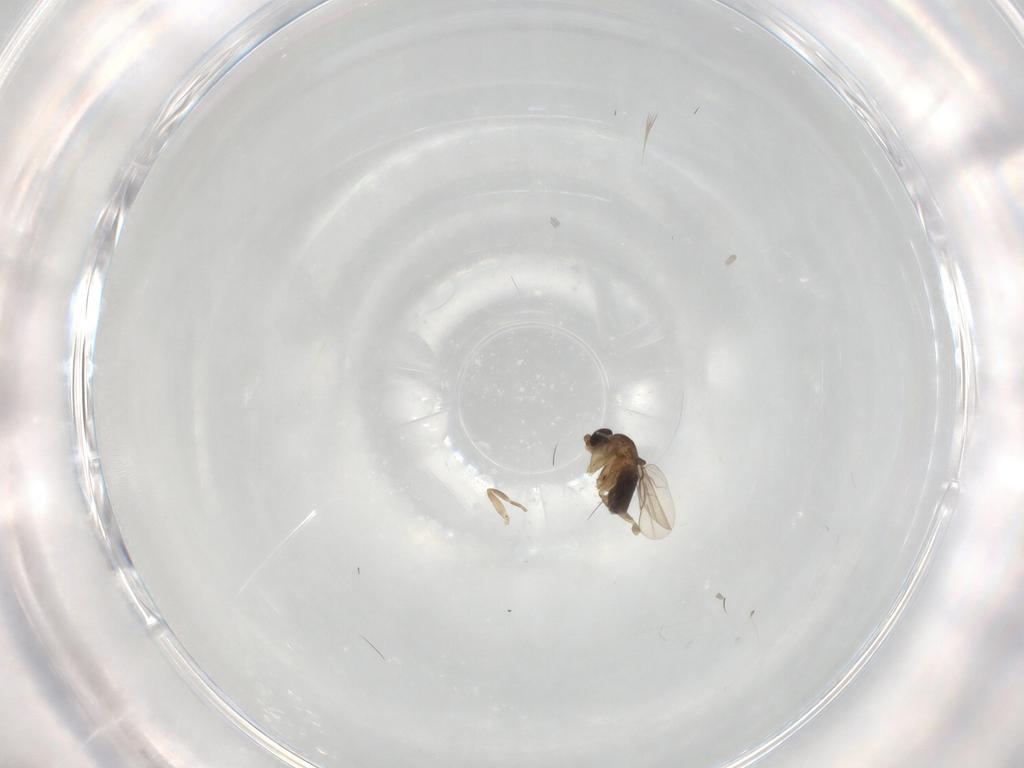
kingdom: Animalia
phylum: Arthropoda
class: Insecta
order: Diptera
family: Phoridae
